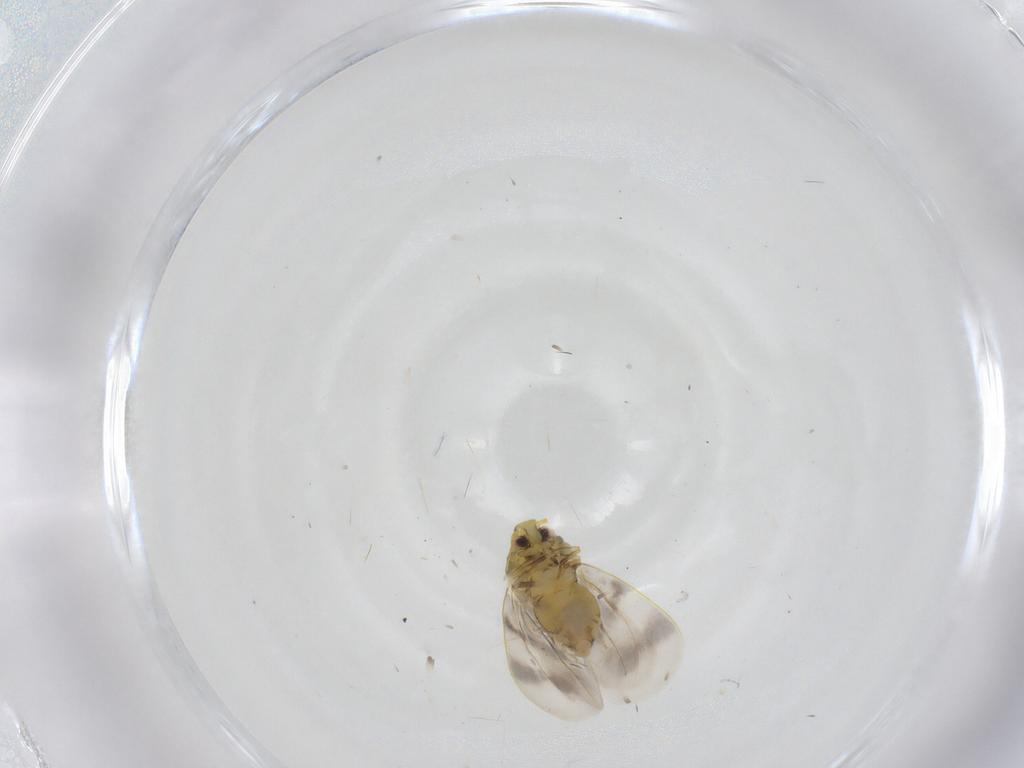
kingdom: Animalia
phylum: Arthropoda
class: Insecta
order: Hemiptera
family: Aleyrodidae
